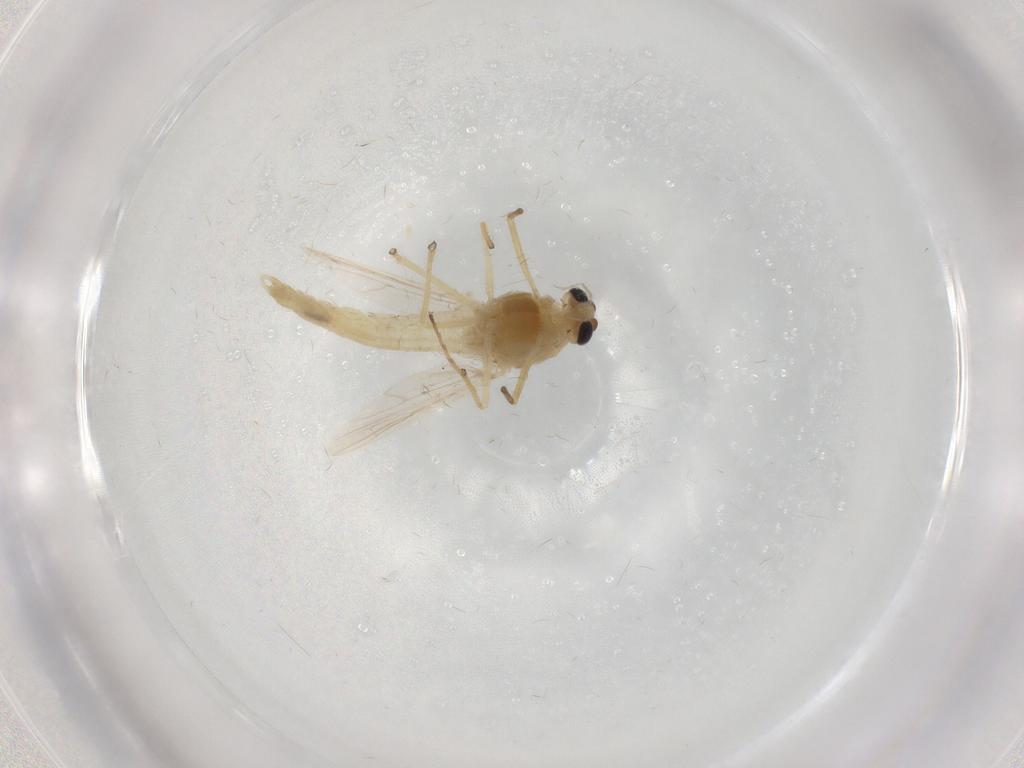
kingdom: Animalia
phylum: Arthropoda
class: Insecta
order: Diptera
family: Chironomidae
